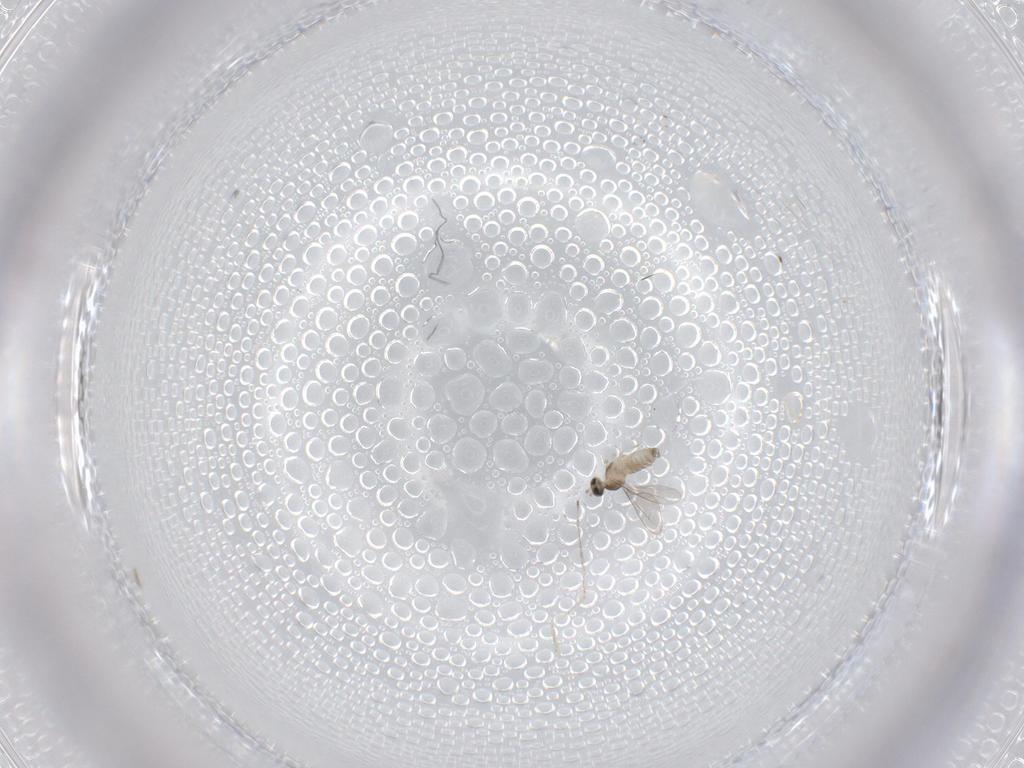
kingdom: Animalia
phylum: Arthropoda
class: Insecta
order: Diptera
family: Cecidomyiidae
